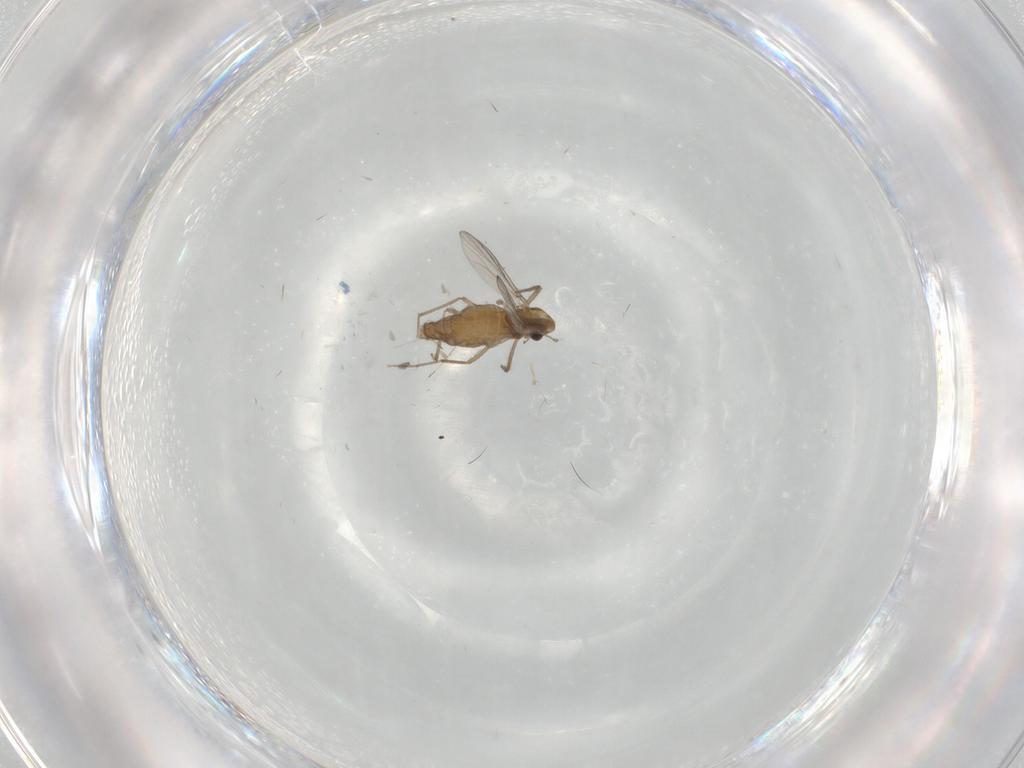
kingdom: Animalia
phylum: Arthropoda
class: Insecta
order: Diptera
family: Chironomidae
